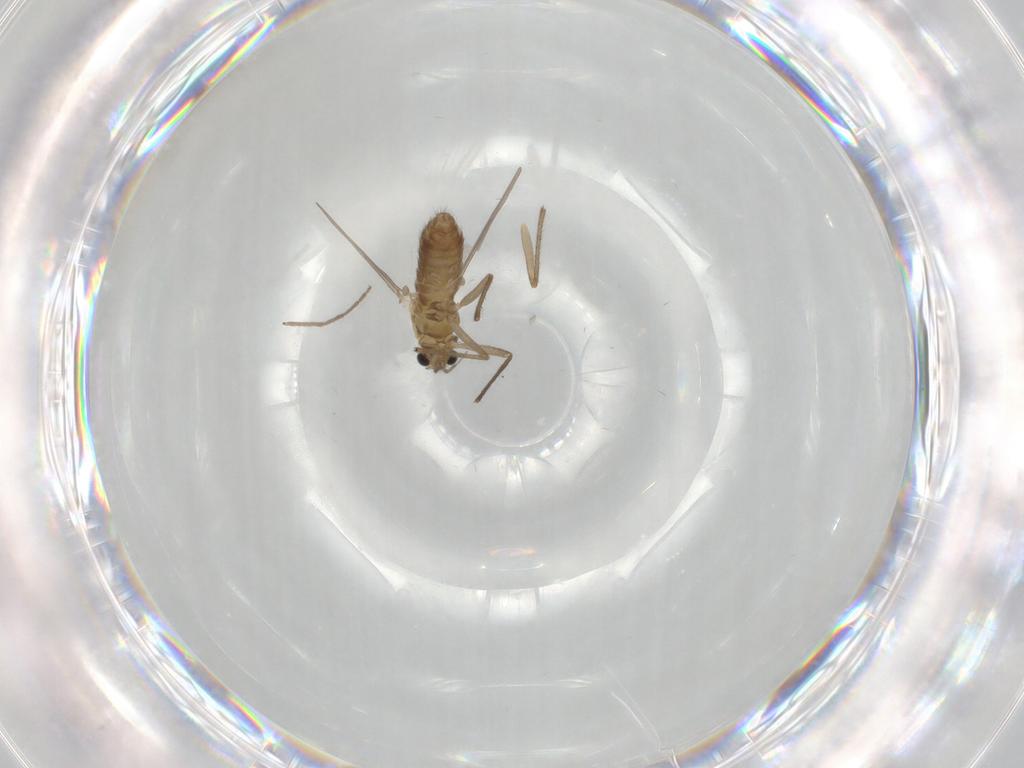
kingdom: Animalia
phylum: Arthropoda
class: Insecta
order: Diptera
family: Chironomidae
